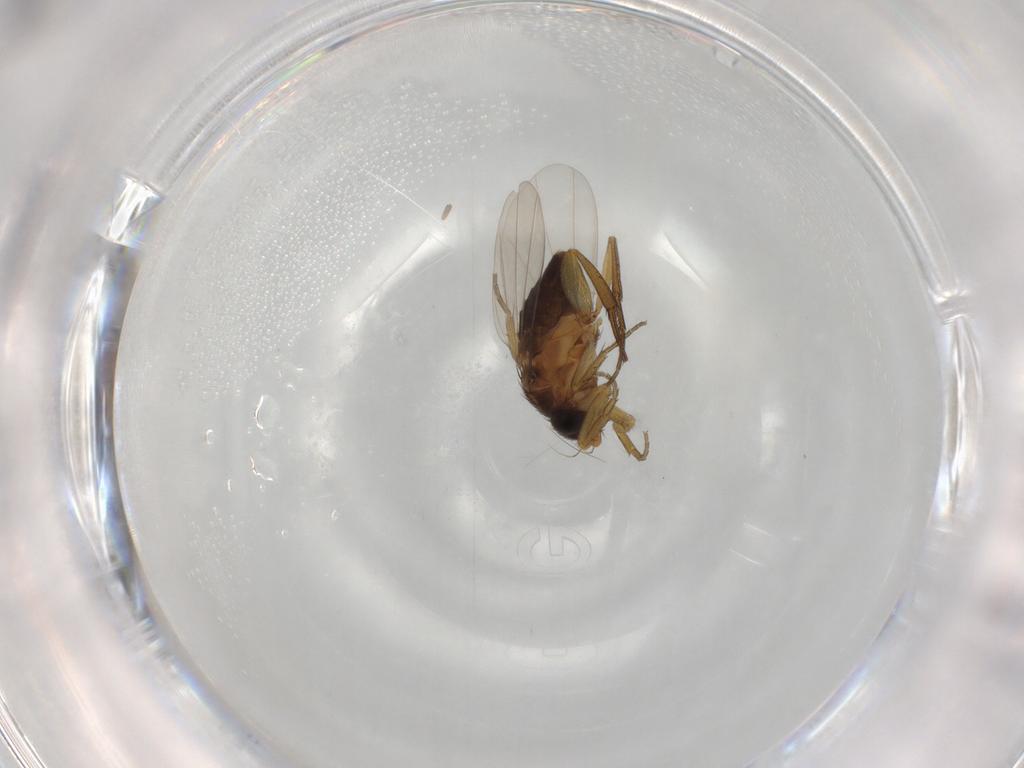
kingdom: Animalia
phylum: Arthropoda
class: Insecta
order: Diptera
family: Phoridae
